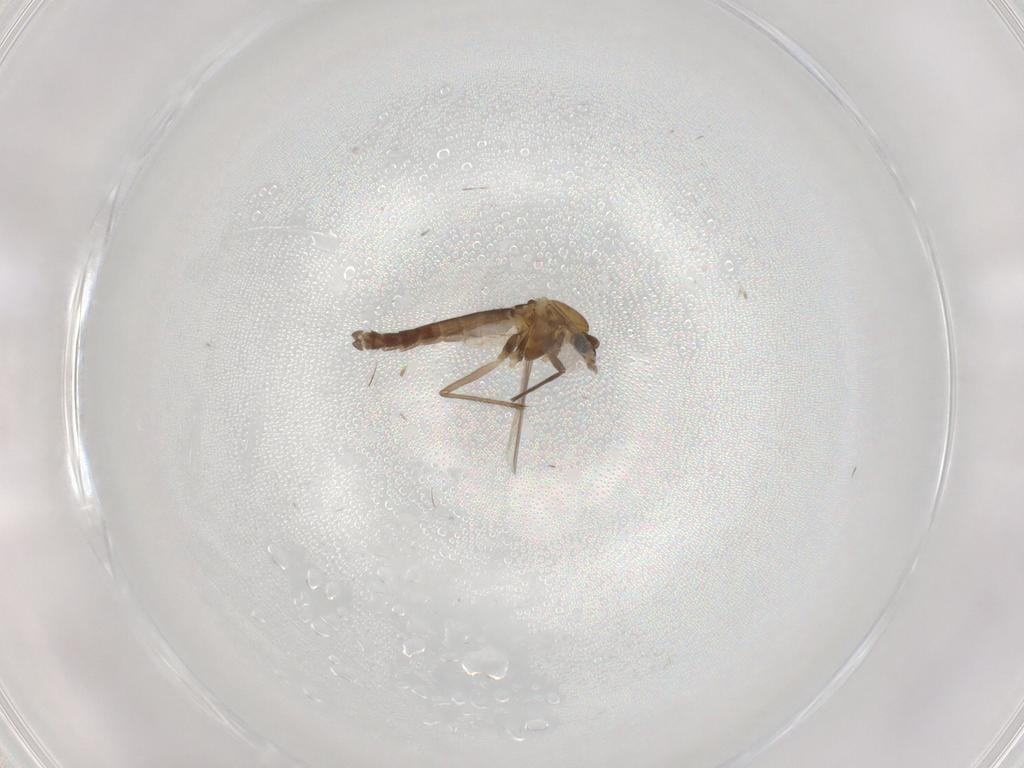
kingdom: Animalia
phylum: Arthropoda
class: Insecta
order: Diptera
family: Chironomidae
